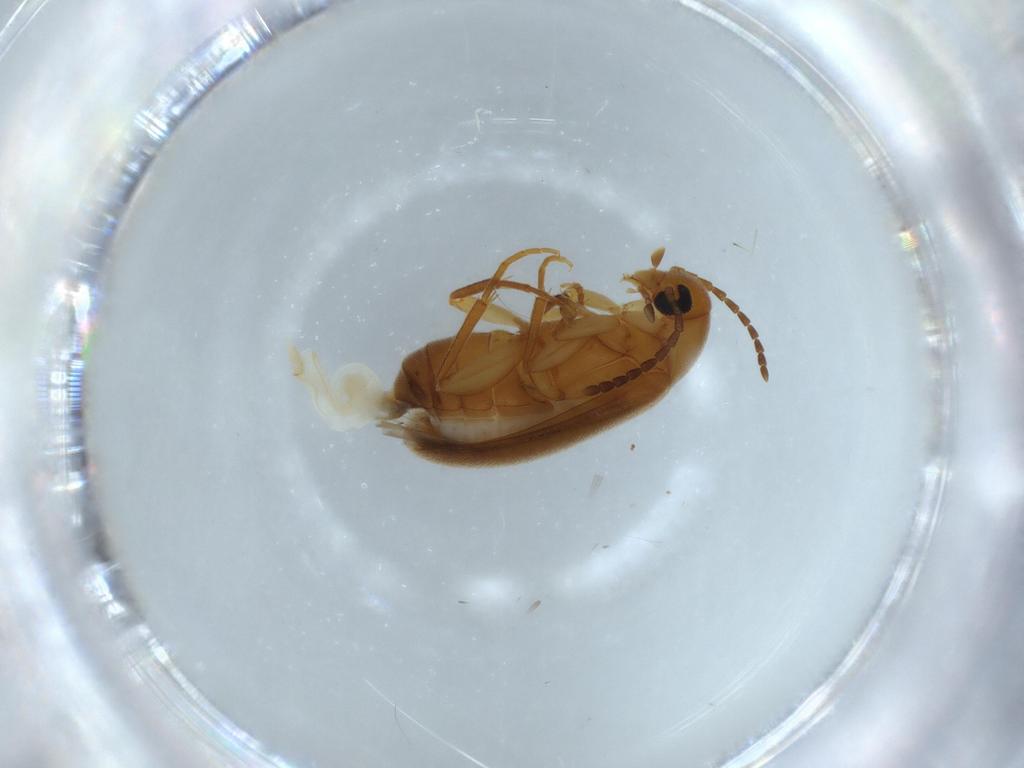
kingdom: Animalia
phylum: Arthropoda
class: Insecta
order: Coleoptera
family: Scraptiidae
